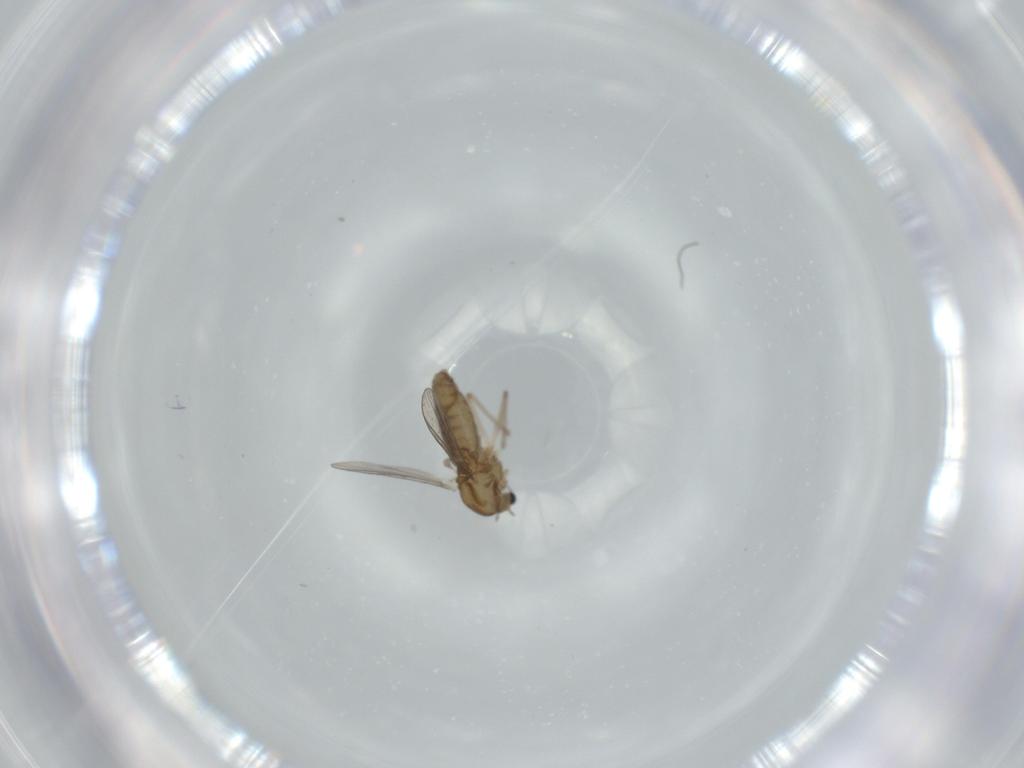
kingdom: Animalia
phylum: Arthropoda
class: Insecta
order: Diptera
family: Chironomidae
